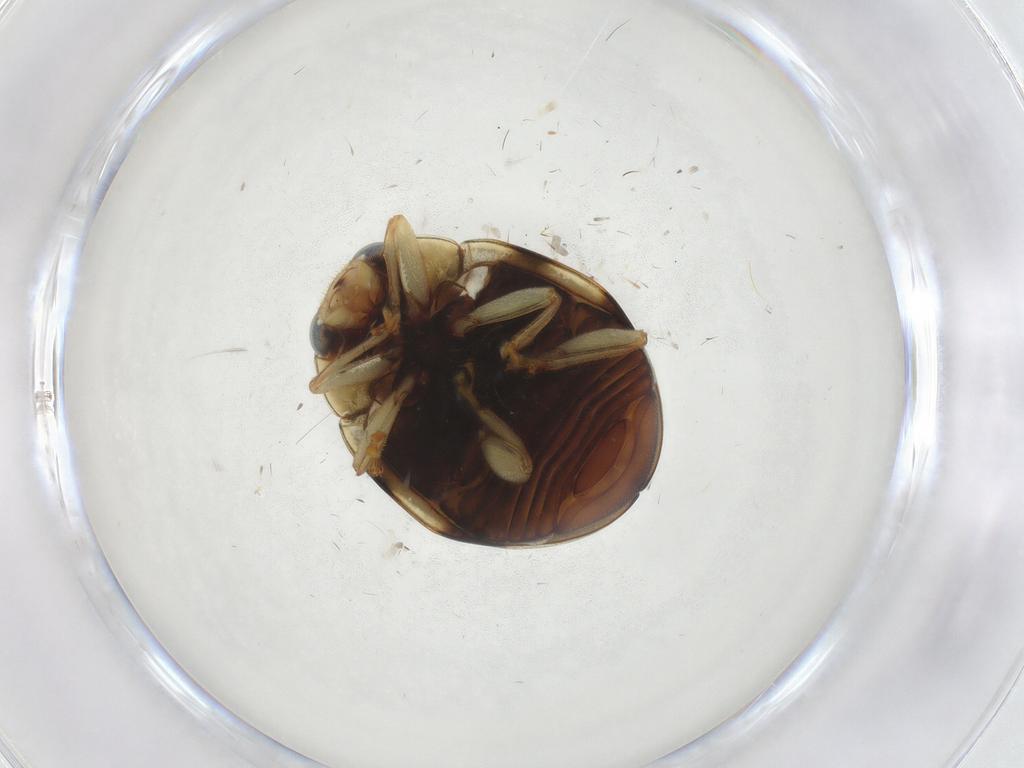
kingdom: Animalia
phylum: Arthropoda
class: Insecta
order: Coleoptera
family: Coccinellidae
